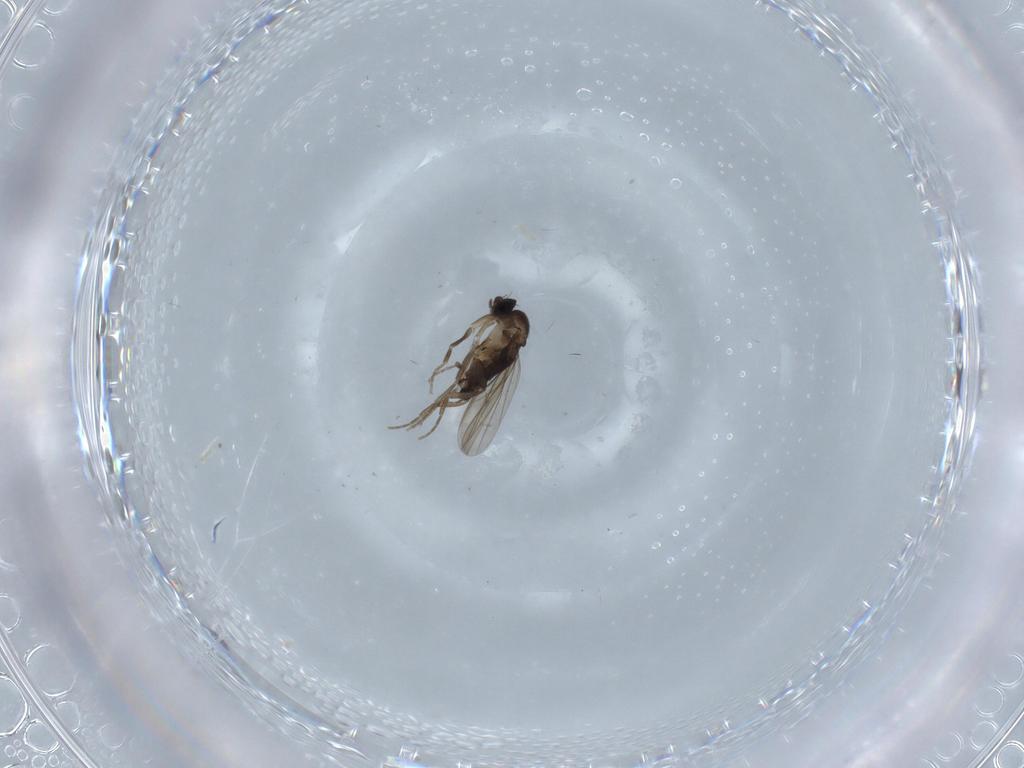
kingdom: Animalia
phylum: Arthropoda
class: Insecta
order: Diptera
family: Phoridae
